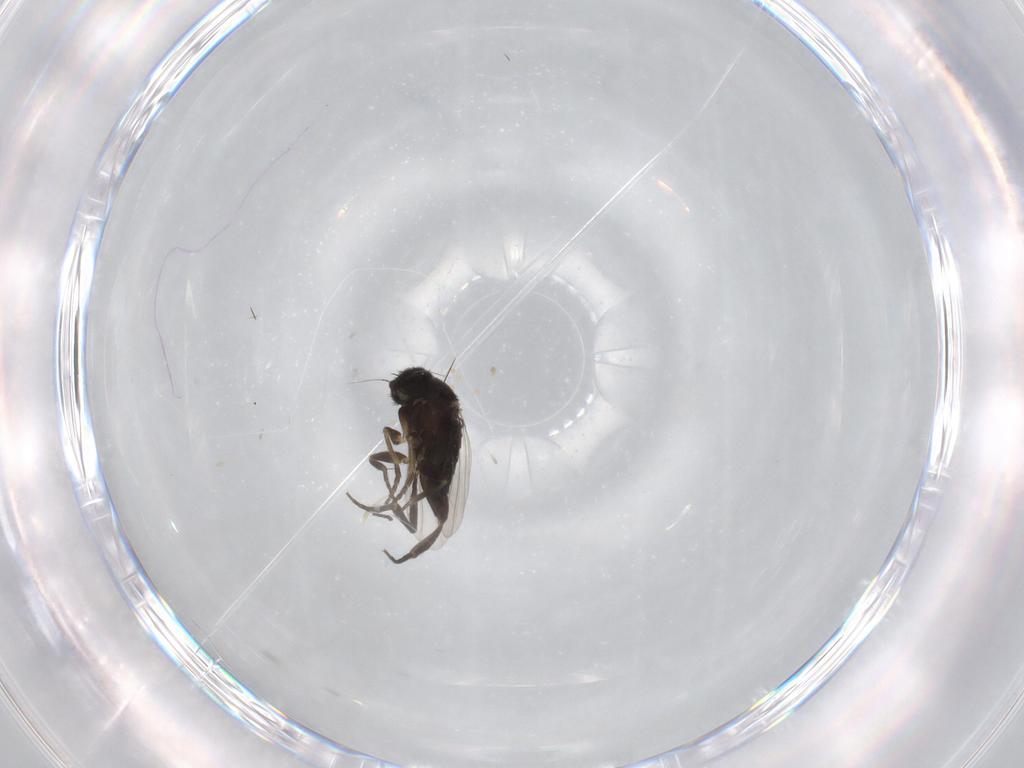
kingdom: Animalia
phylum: Arthropoda
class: Insecta
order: Diptera
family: Phoridae
